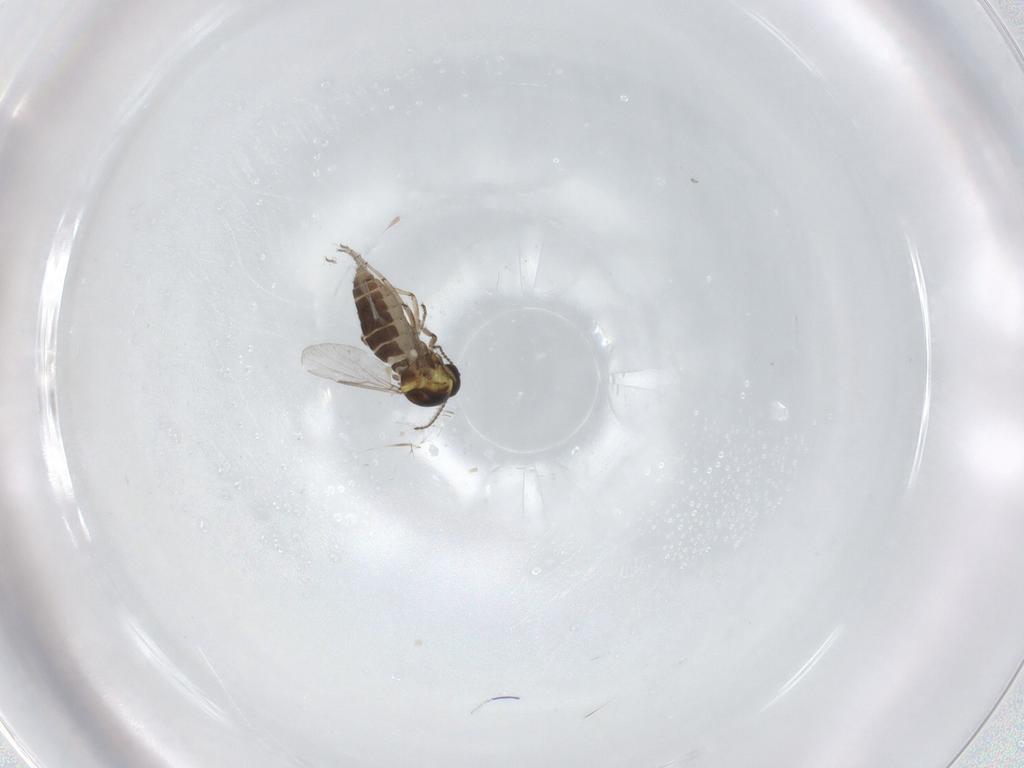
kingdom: Animalia
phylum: Arthropoda
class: Insecta
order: Diptera
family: Ceratopogonidae
